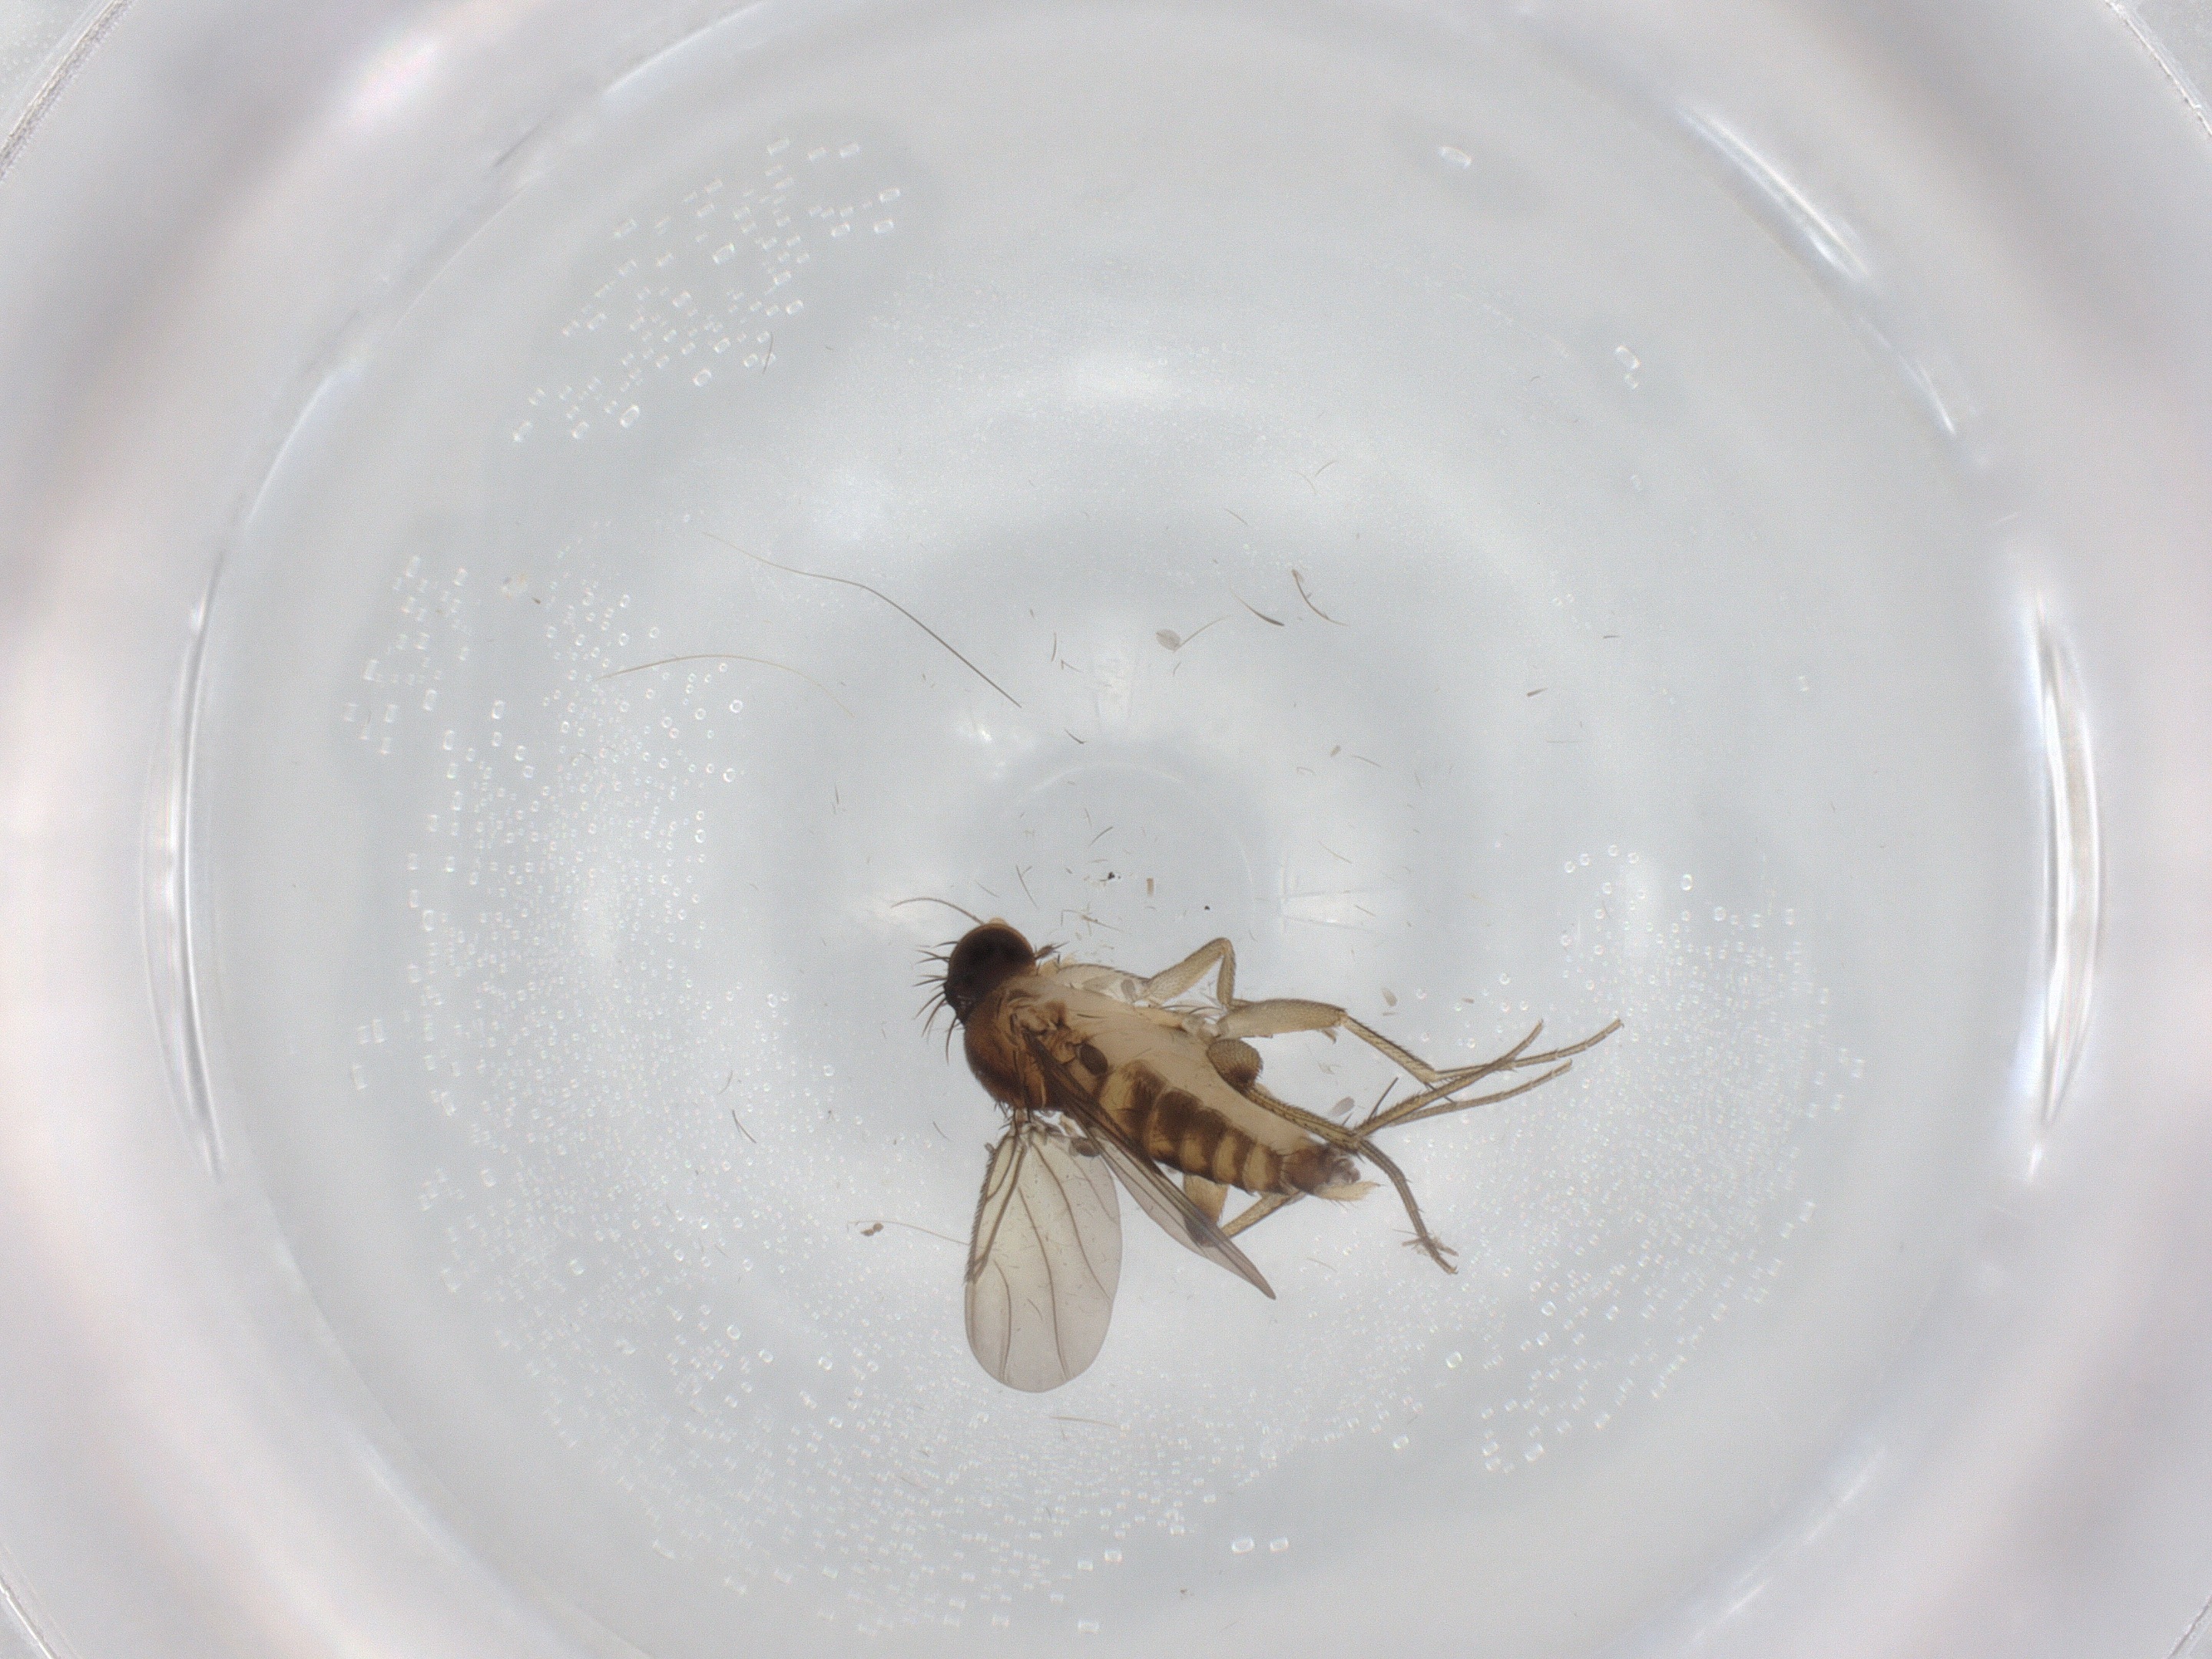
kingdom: Animalia
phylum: Arthropoda
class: Insecta
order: Diptera
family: Phoridae
